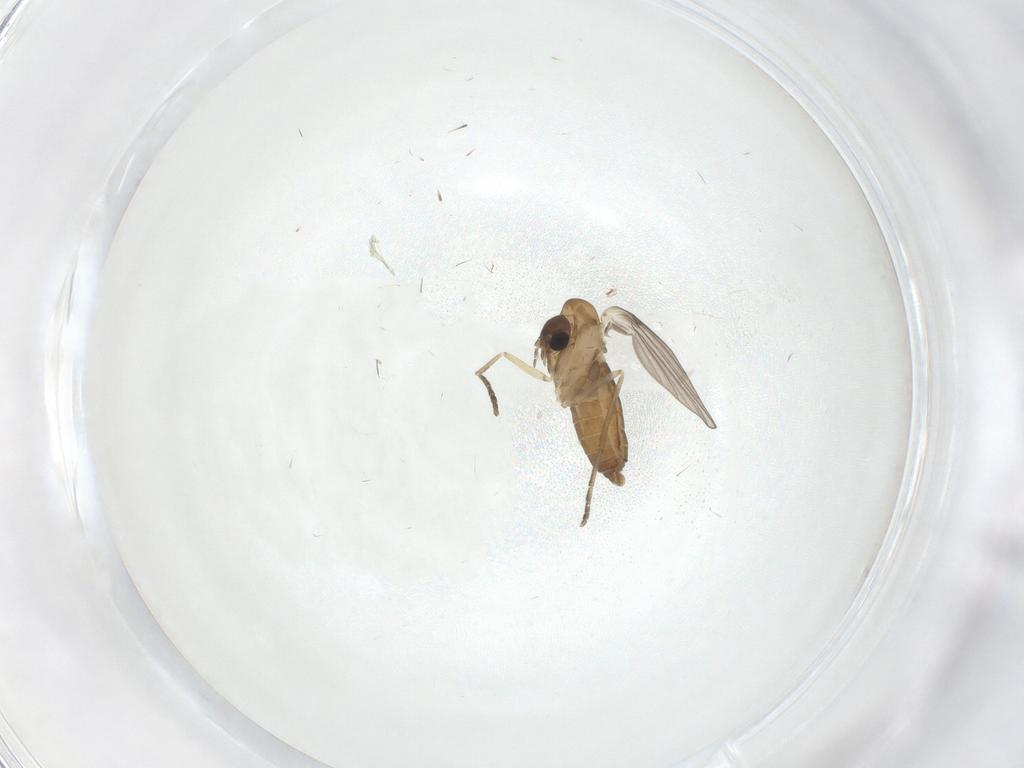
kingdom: Animalia
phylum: Arthropoda
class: Insecta
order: Diptera
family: Cecidomyiidae
